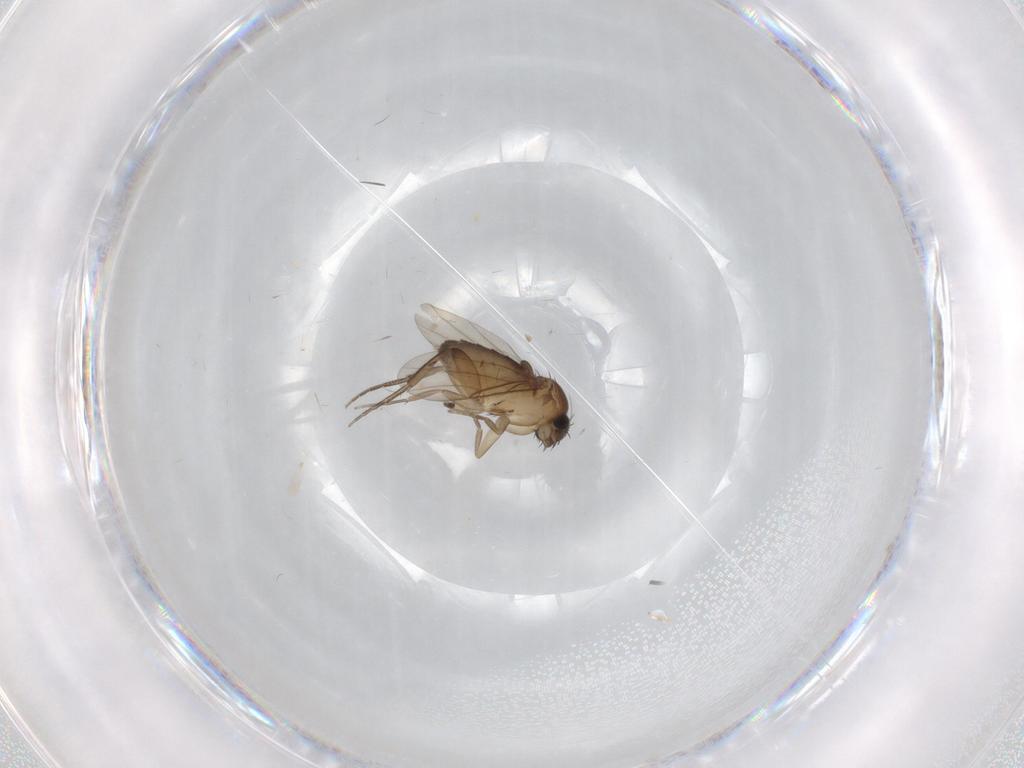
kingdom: Animalia
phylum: Arthropoda
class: Insecta
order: Diptera
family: Phoridae
